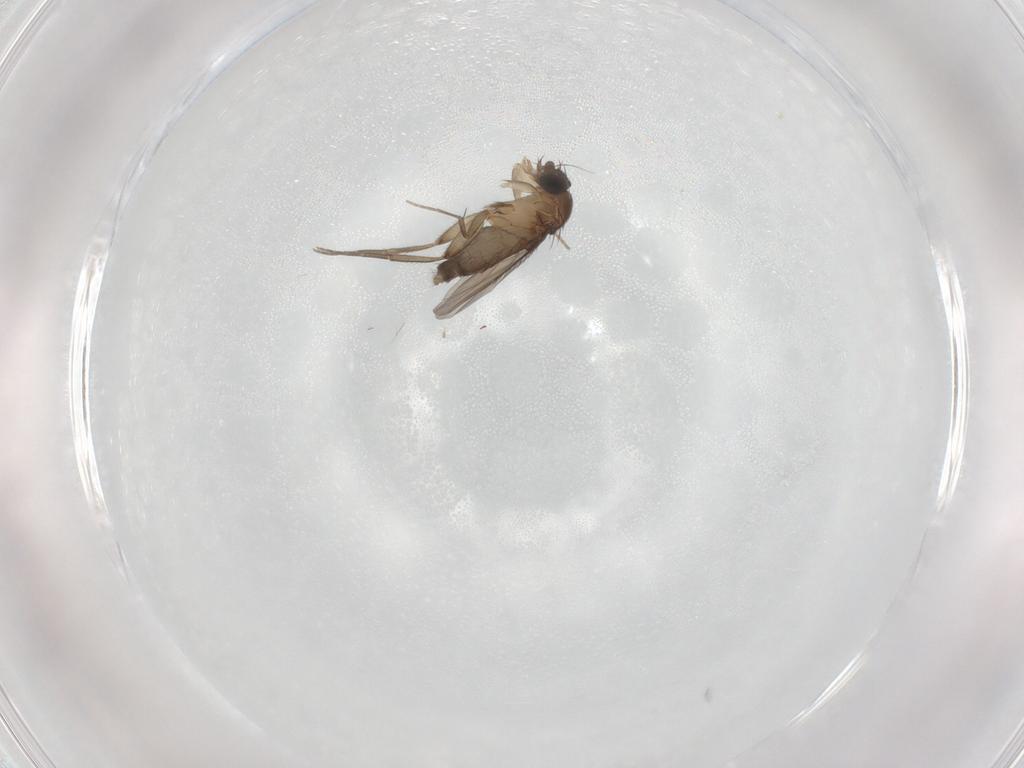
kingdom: Animalia
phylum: Arthropoda
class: Insecta
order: Diptera
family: Phoridae
